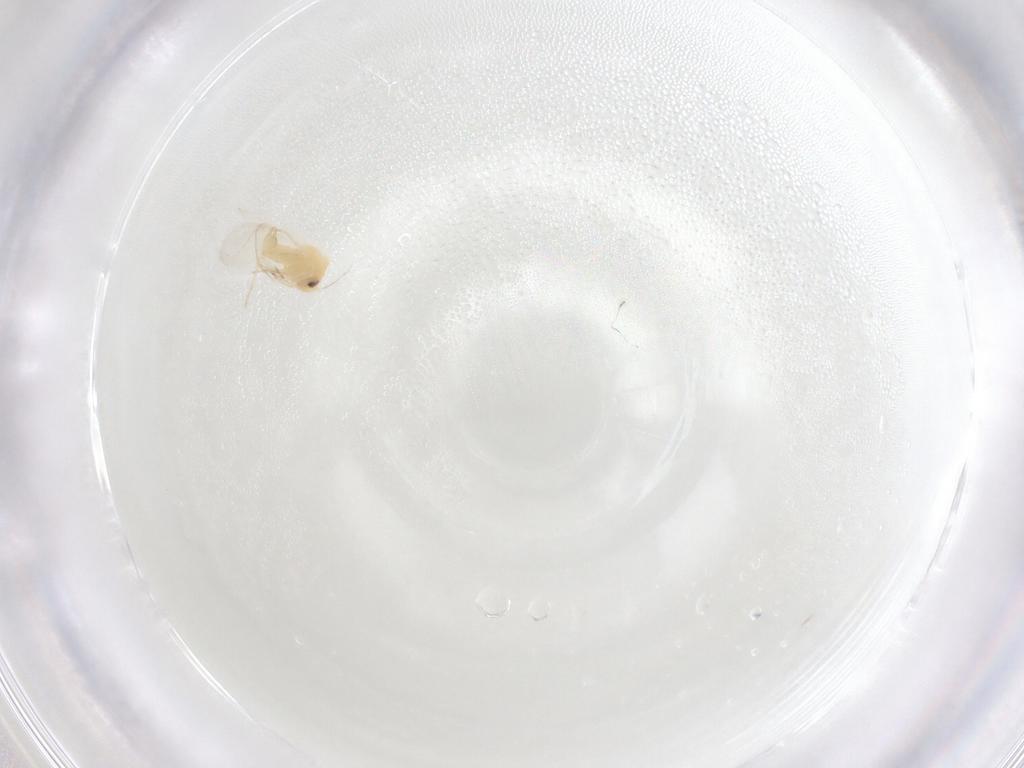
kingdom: Animalia
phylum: Arthropoda
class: Insecta
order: Hemiptera
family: Aleyrodidae
